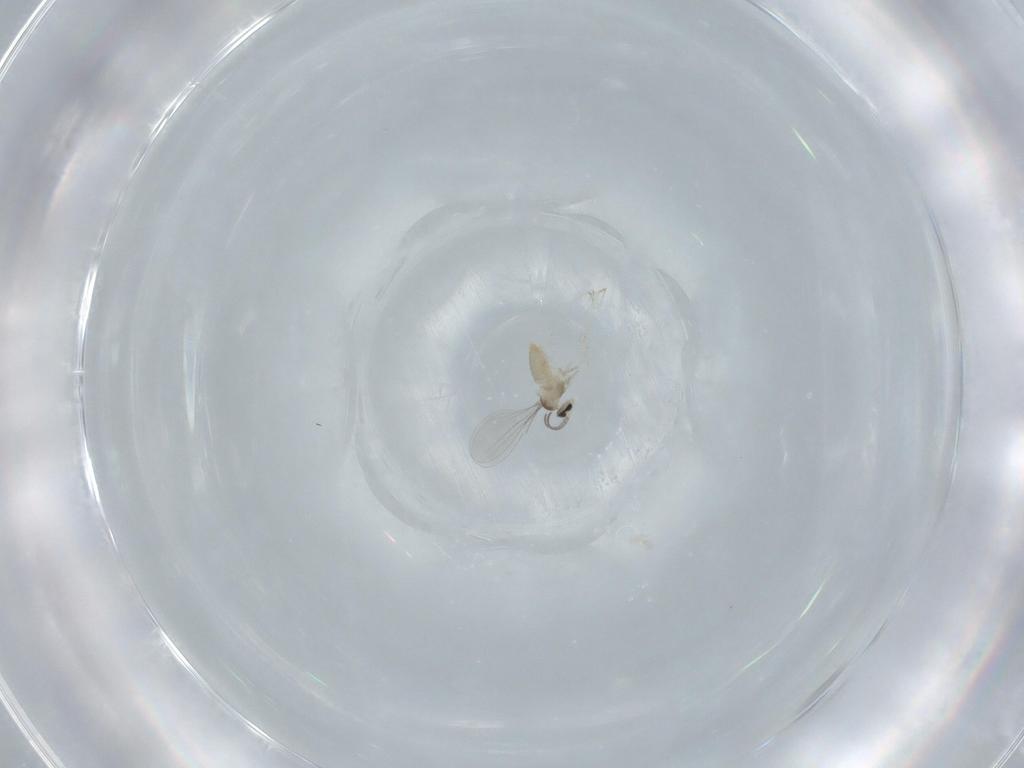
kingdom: Animalia
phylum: Arthropoda
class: Insecta
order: Diptera
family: Cecidomyiidae
